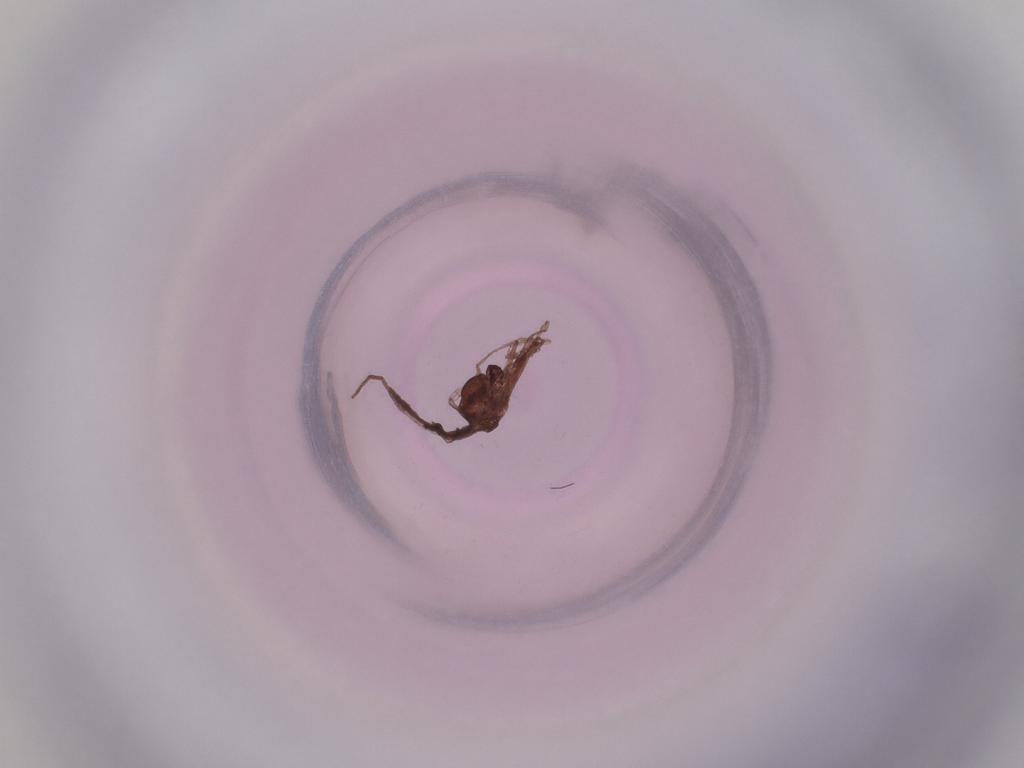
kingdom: Animalia
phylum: Arthropoda
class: Insecta
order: Diptera
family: Cecidomyiidae
